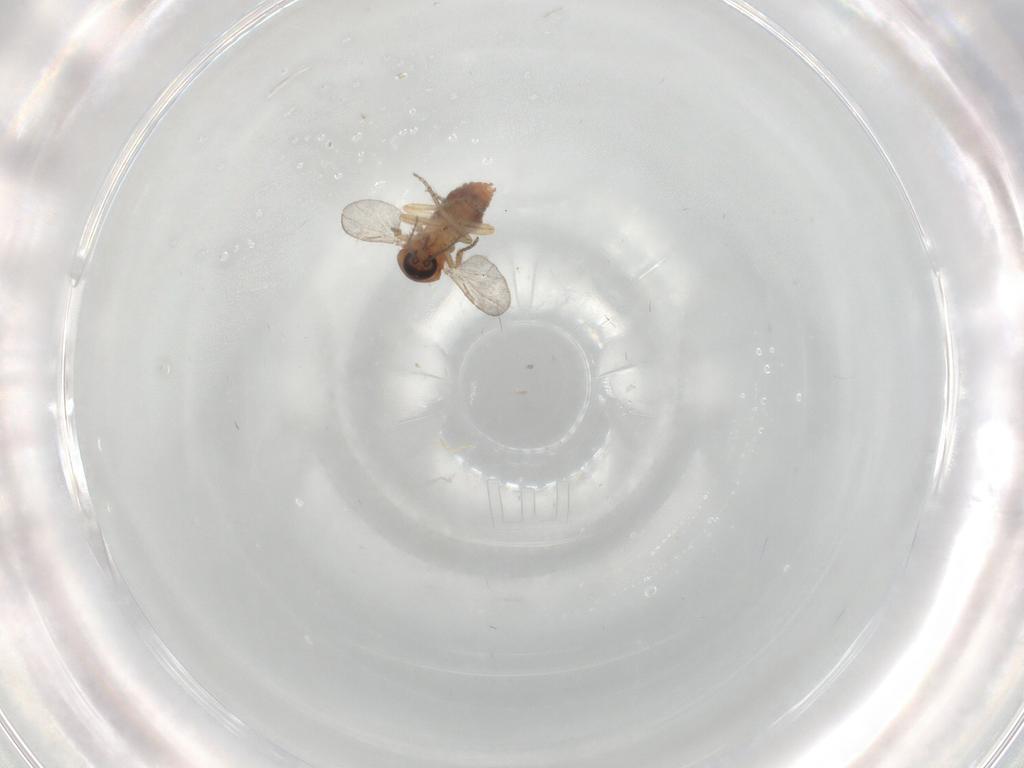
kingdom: Animalia
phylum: Arthropoda
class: Insecta
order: Diptera
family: Ceratopogonidae
